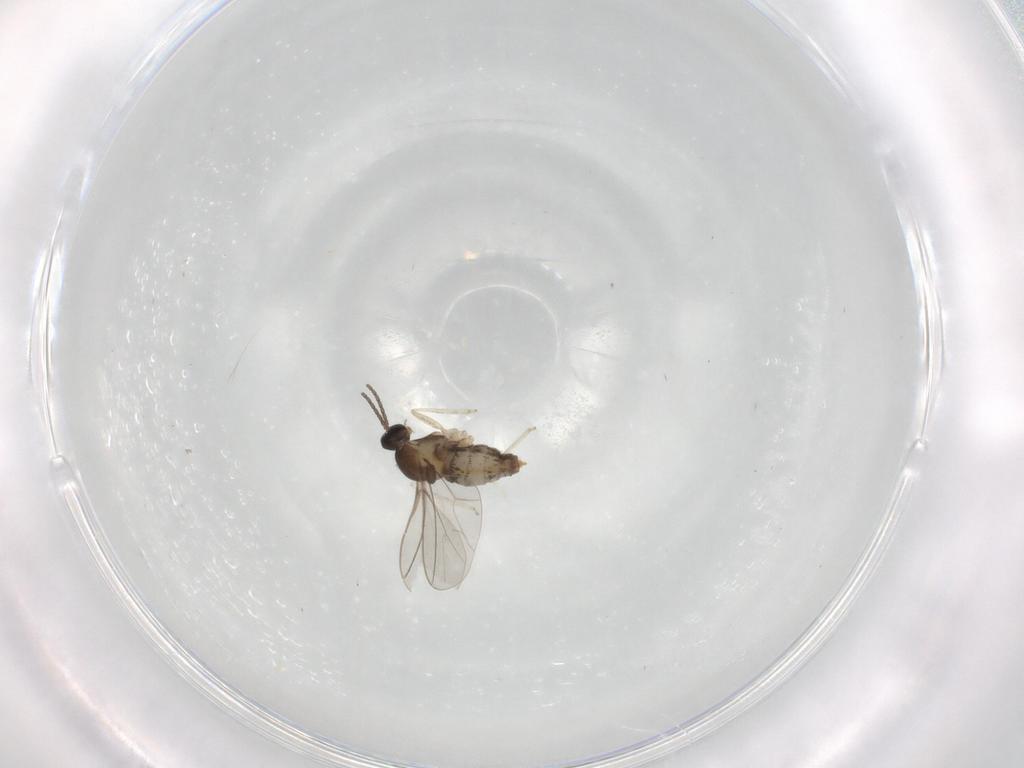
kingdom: Animalia
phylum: Arthropoda
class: Insecta
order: Diptera
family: Cecidomyiidae
